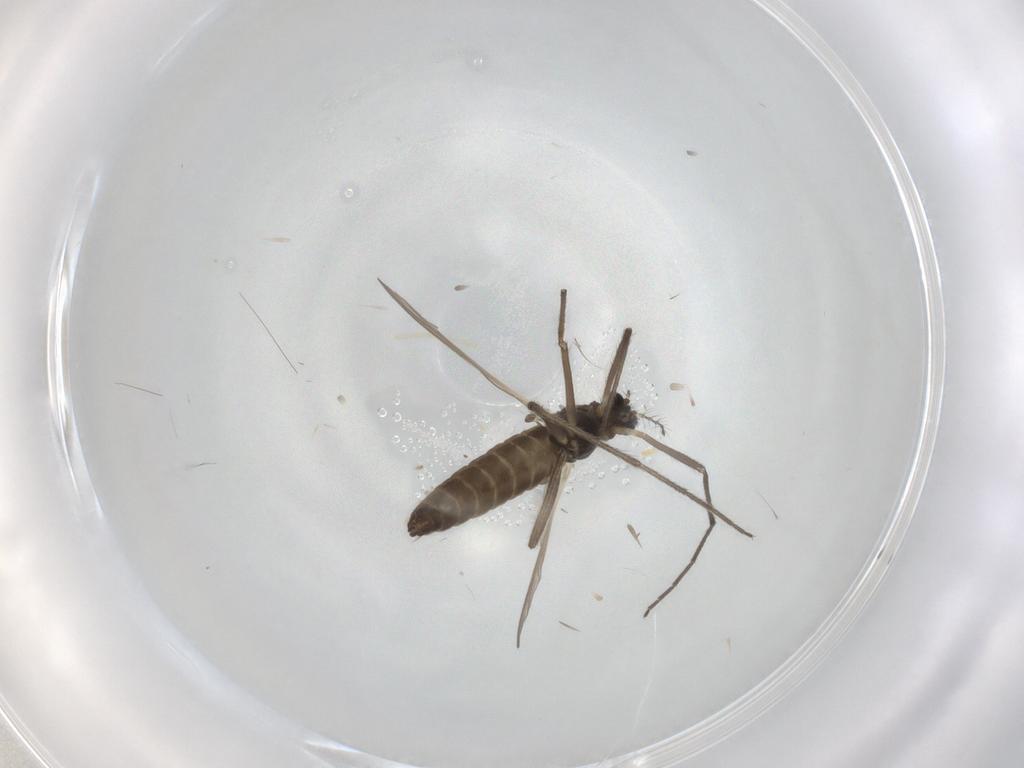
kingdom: Animalia
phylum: Arthropoda
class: Insecta
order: Diptera
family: Chironomidae
